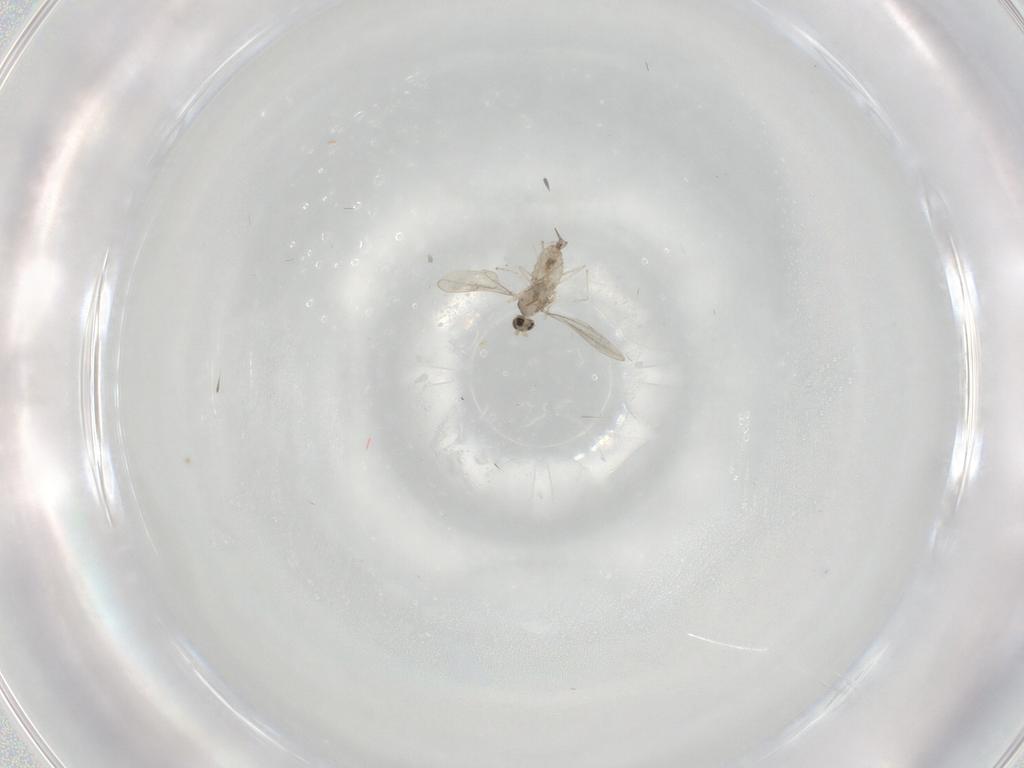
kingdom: Animalia
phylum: Arthropoda
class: Insecta
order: Diptera
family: Cecidomyiidae
